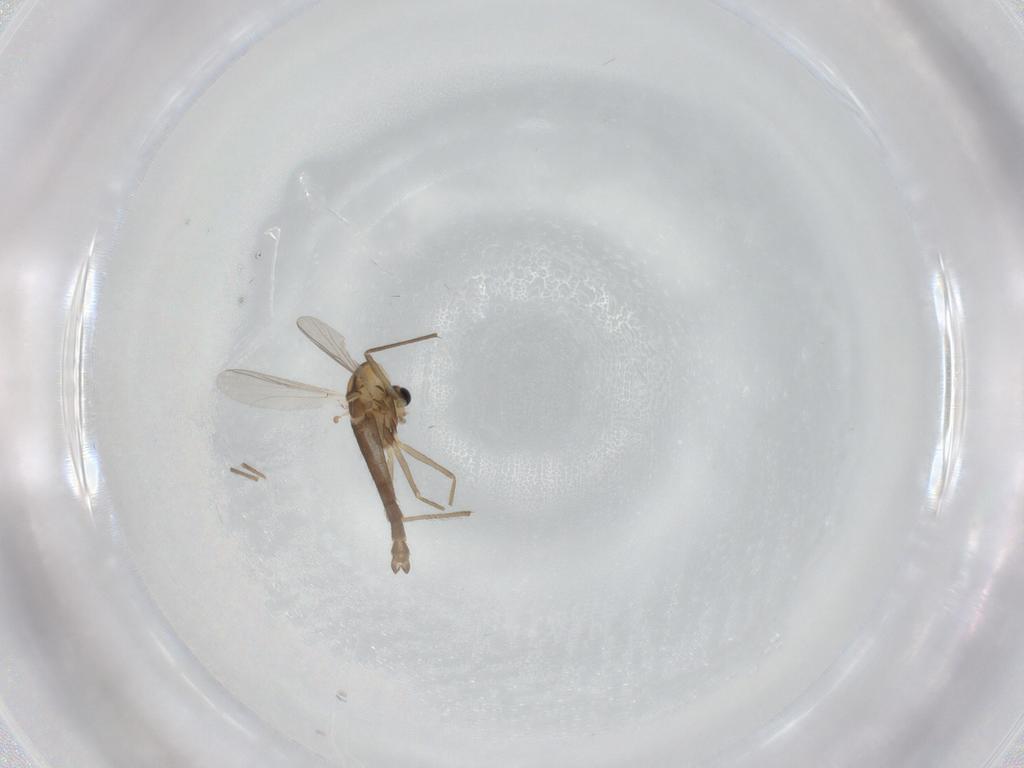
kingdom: Animalia
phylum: Arthropoda
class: Insecta
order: Diptera
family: Chironomidae
